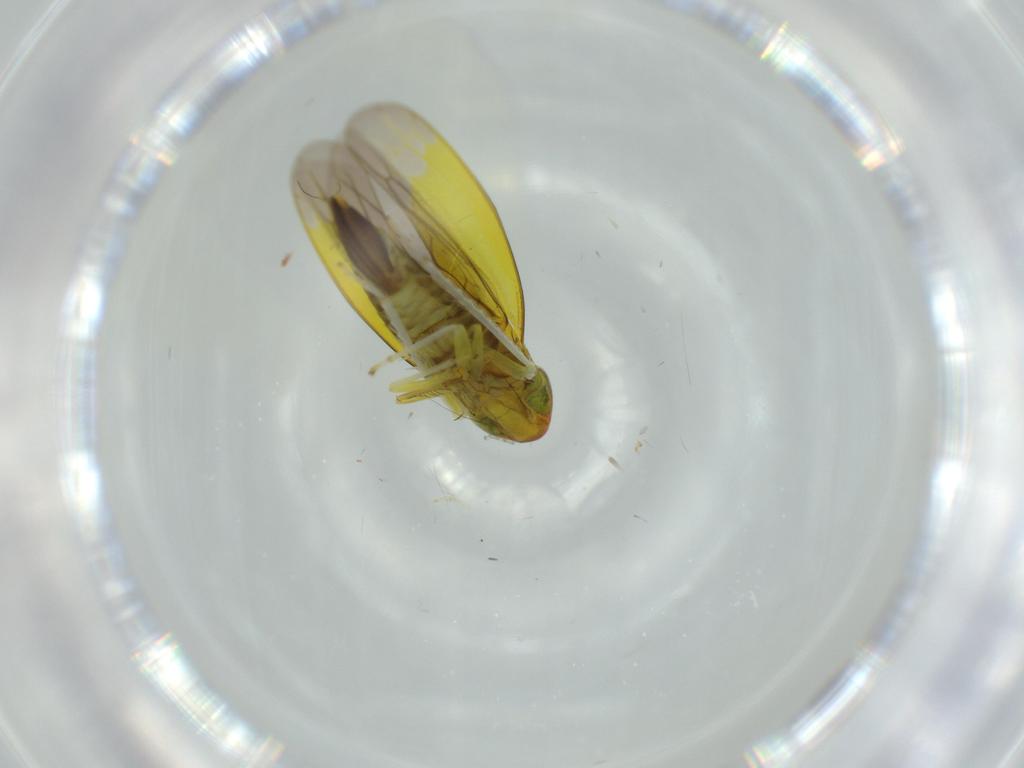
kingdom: Animalia
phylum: Arthropoda
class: Insecta
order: Hemiptera
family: Aleyrodidae
